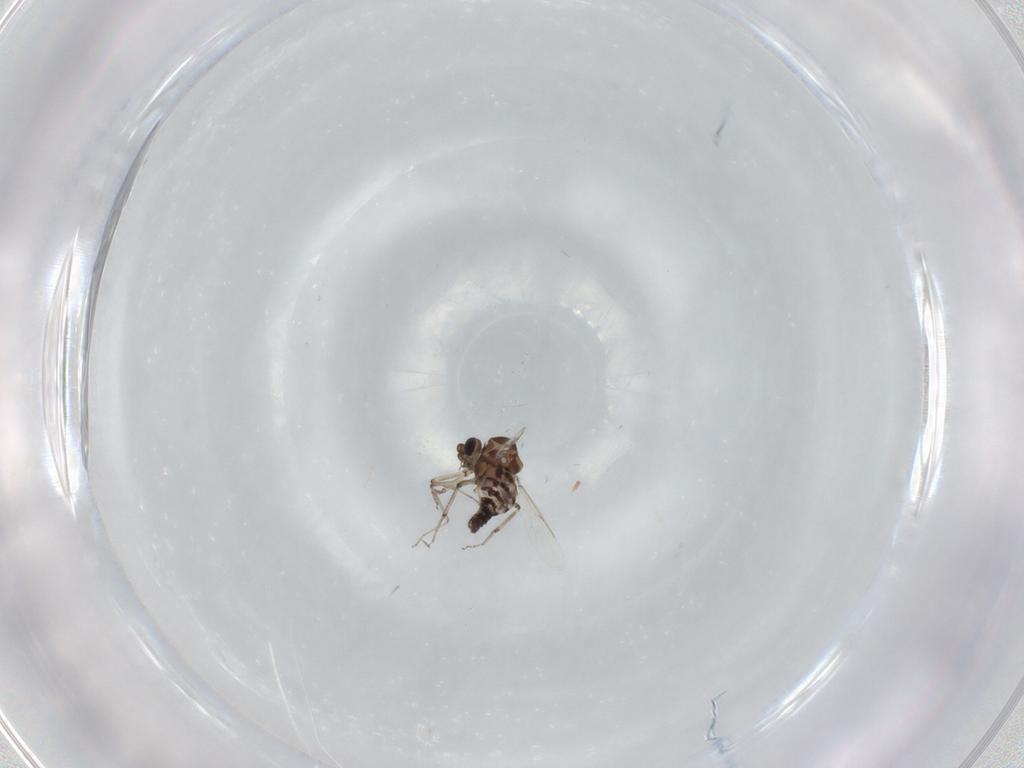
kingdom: Animalia
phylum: Arthropoda
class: Insecta
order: Diptera
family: Ceratopogonidae
